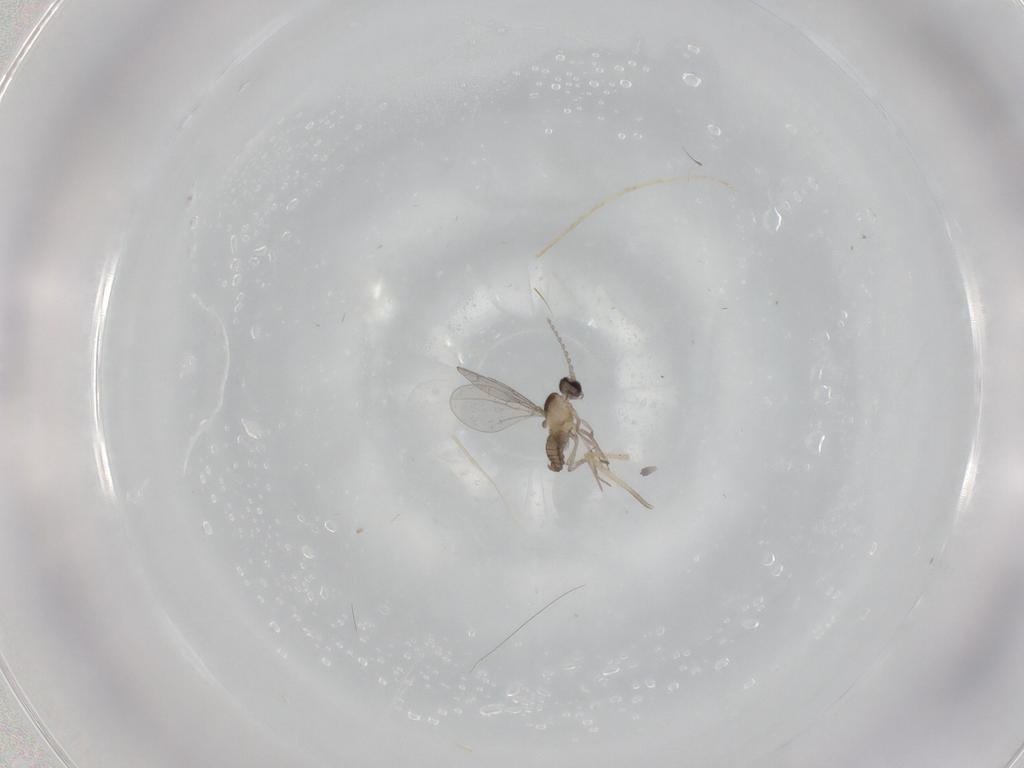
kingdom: Animalia
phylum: Arthropoda
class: Insecta
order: Diptera
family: Chironomidae
